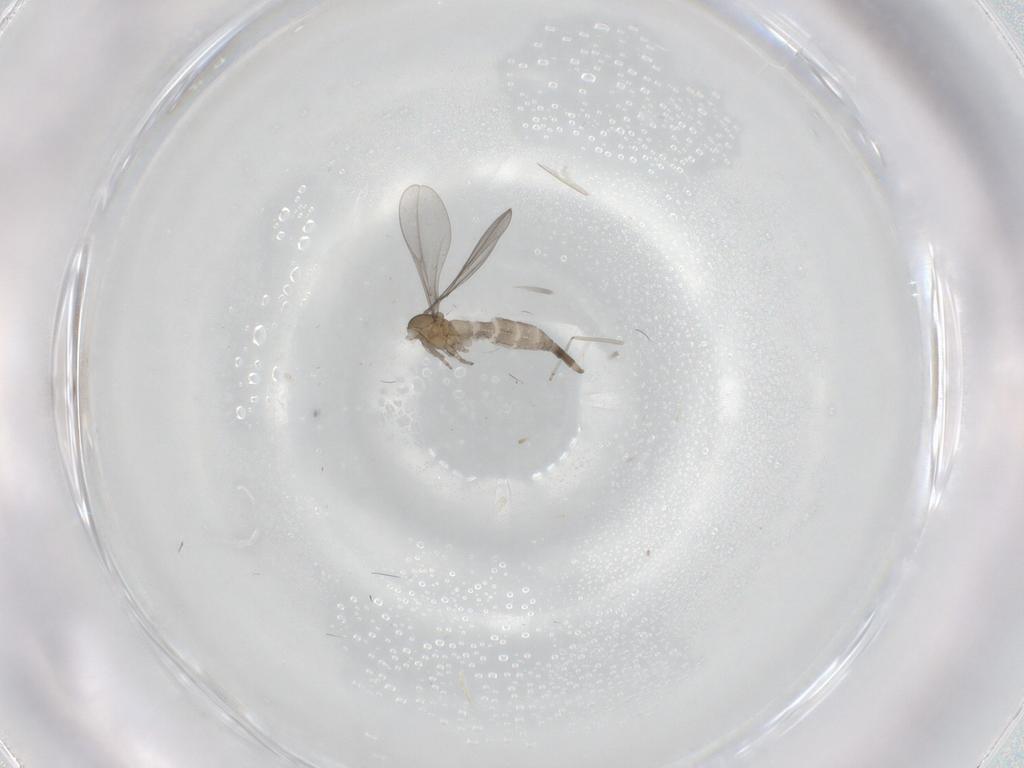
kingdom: Animalia
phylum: Arthropoda
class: Insecta
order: Diptera
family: Cecidomyiidae
